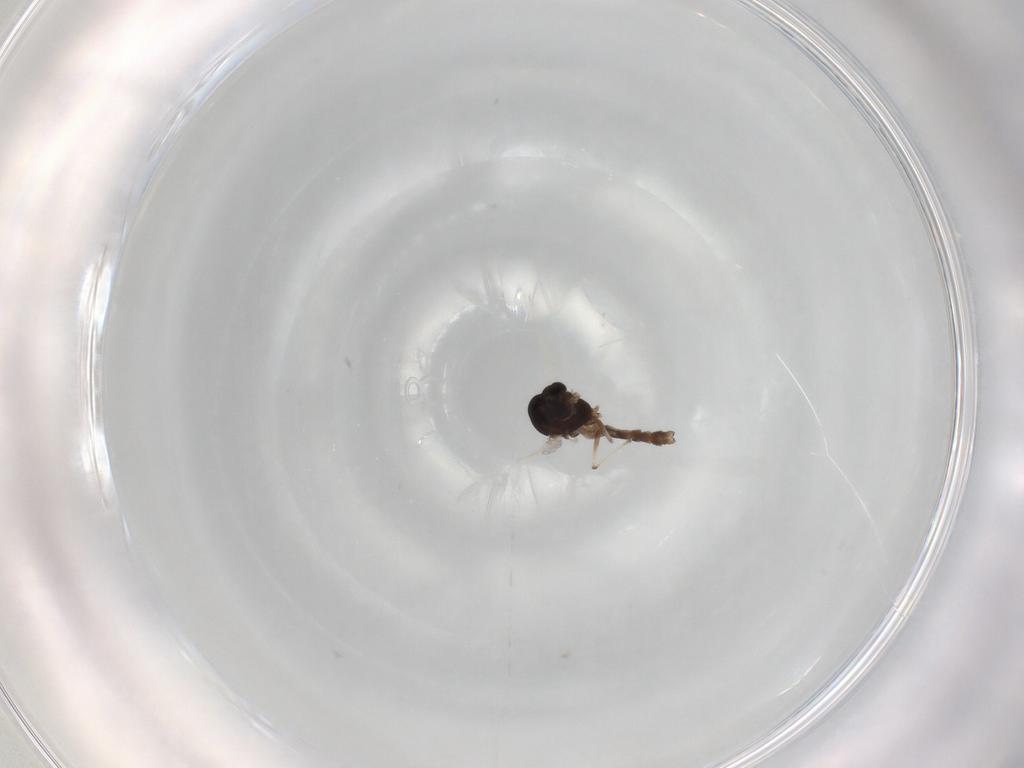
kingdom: Animalia
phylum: Arthropoda
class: Insecta
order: Diptera
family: Chironomidae
